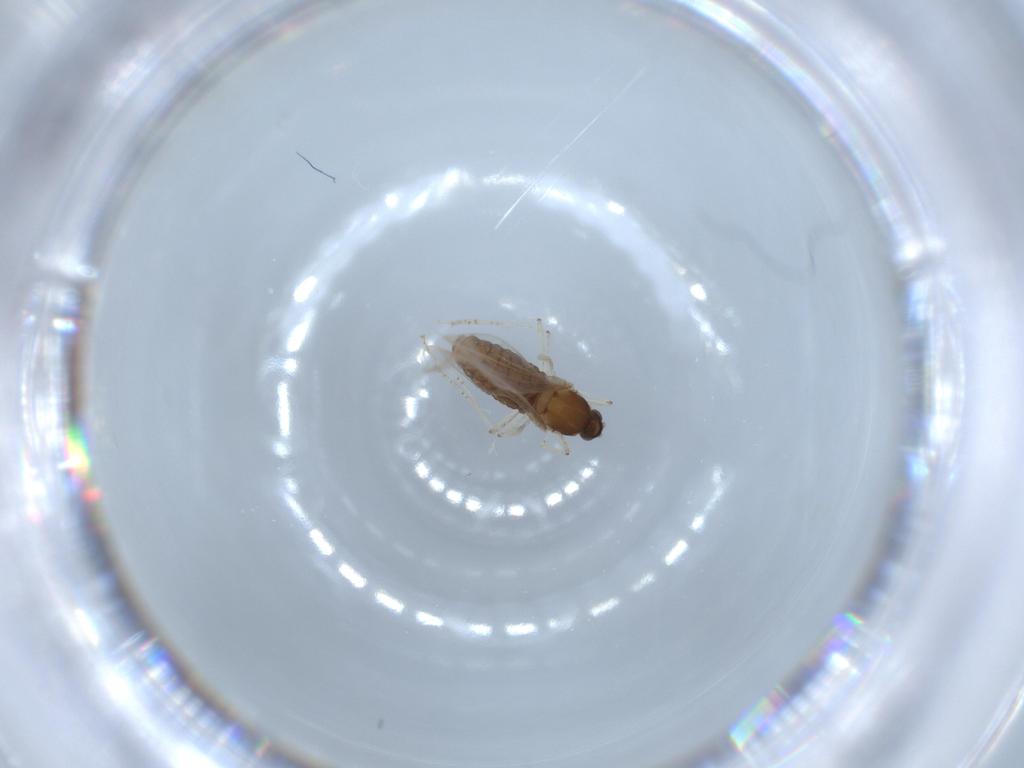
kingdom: Animalia
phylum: Arthropoda
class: Insecta
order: Diptera
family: Cecidomyiidae
